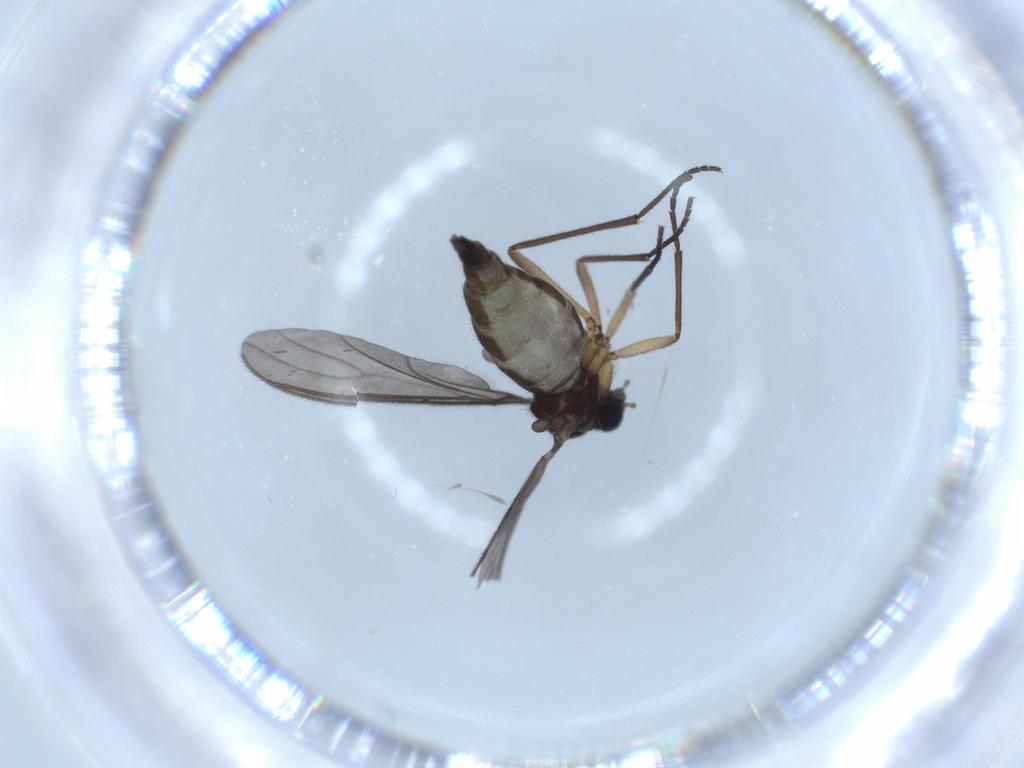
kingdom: Animalia
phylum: Arthropoda
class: Insecta
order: Diptera
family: Sciaridae
